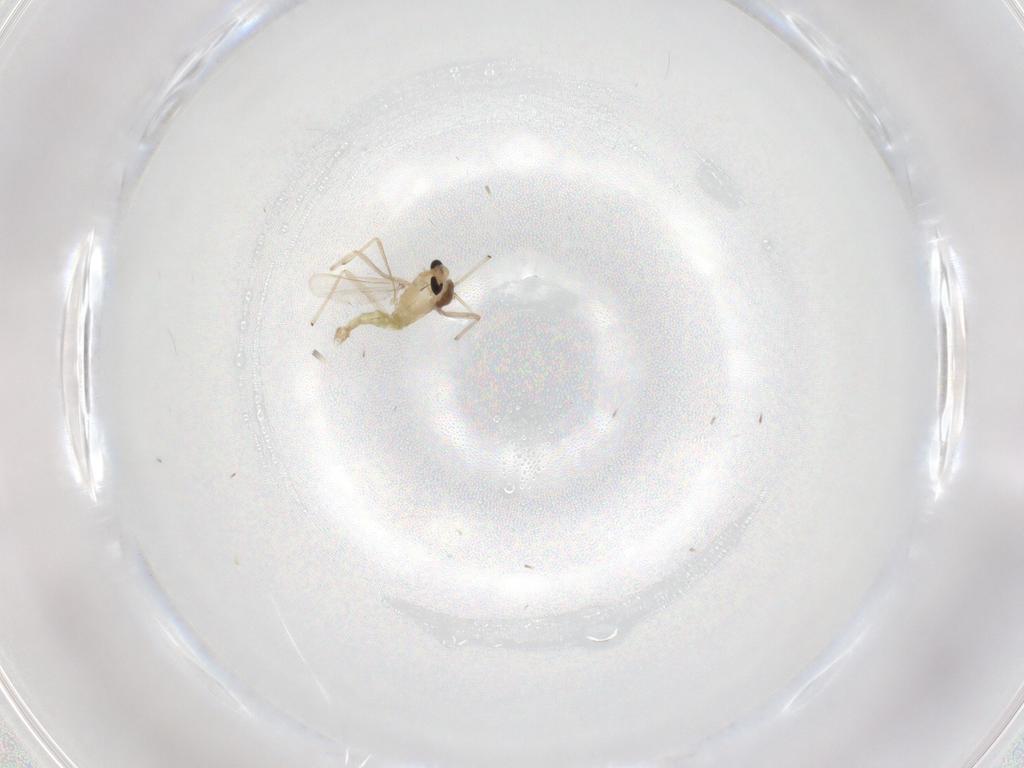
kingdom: Animalia
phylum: Arthropoda
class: Insecta
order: Diptera
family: Chironomidae
